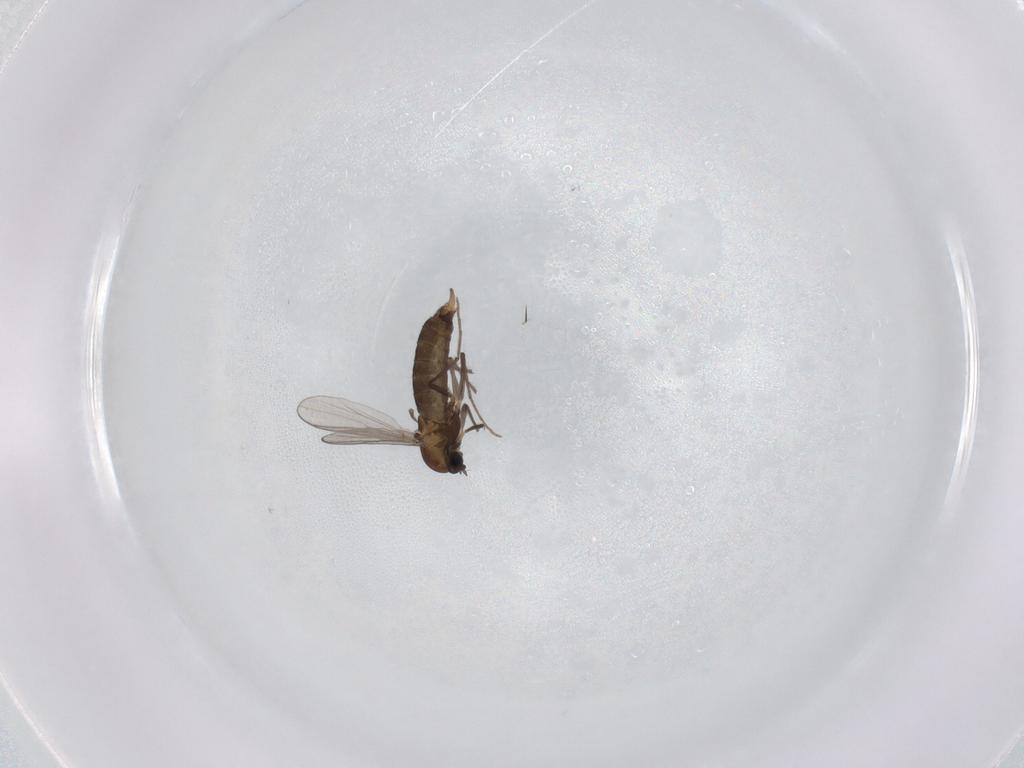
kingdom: Animalia
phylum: Arthropoda
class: Insecta
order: Diptera
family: Chironomidae
